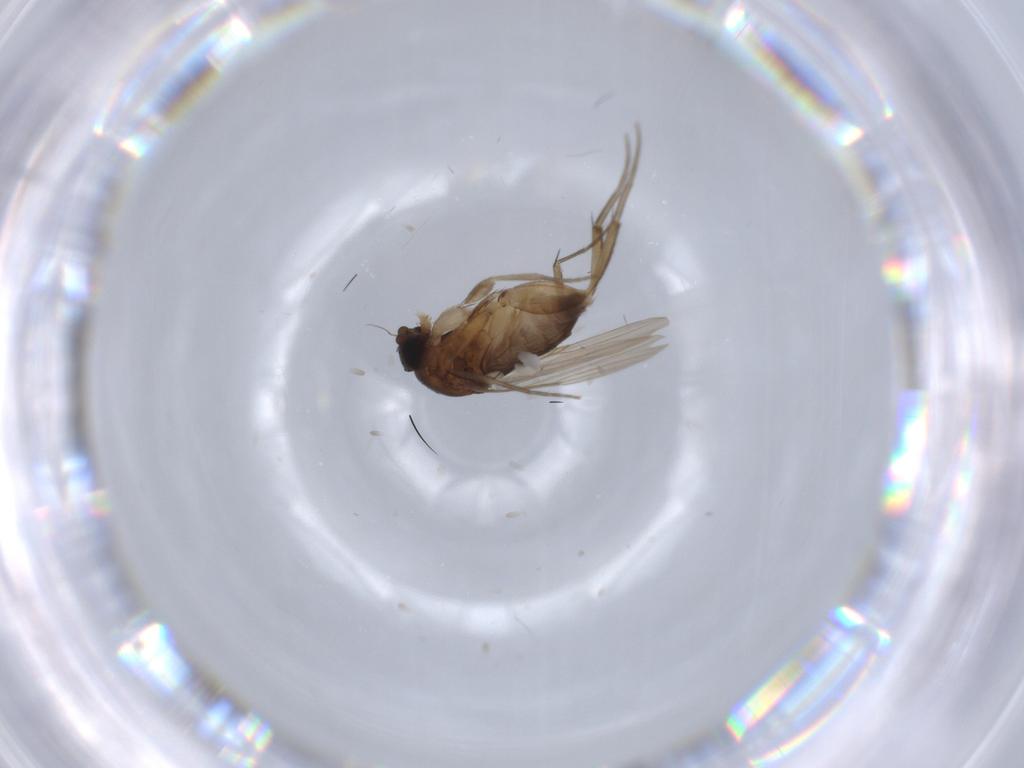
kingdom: Animalia
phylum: Arthropoda
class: Insecta
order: Diptera
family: Phoridae
